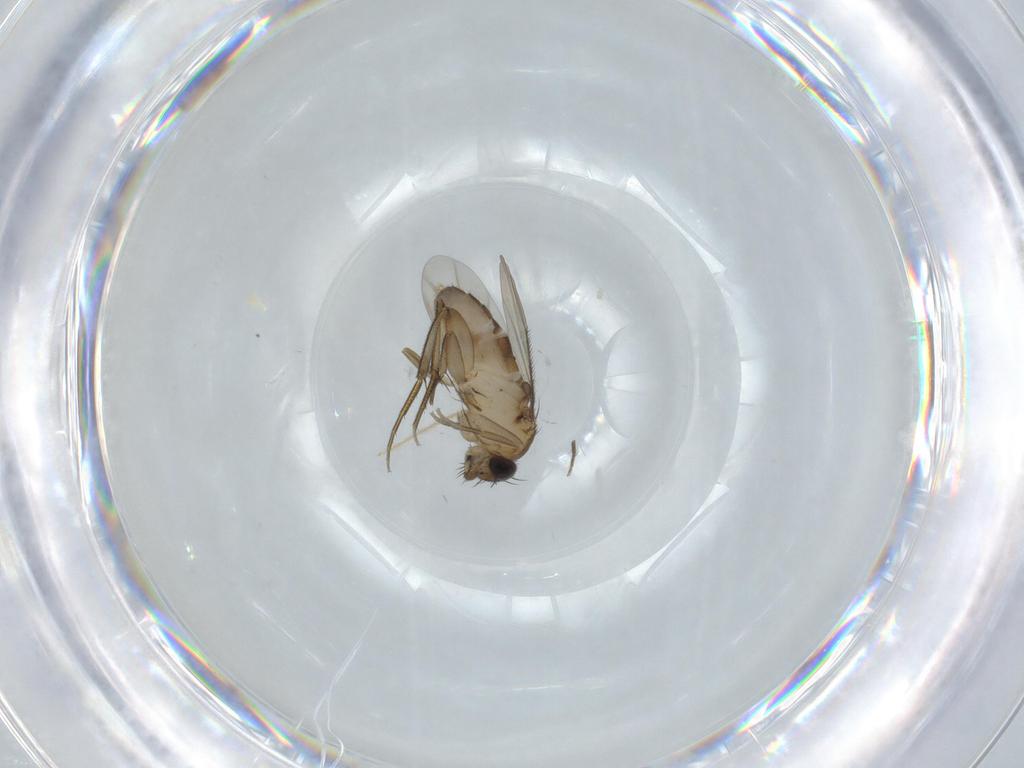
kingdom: Animalia
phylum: Arthropoda
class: Insecta
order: Diptera
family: Phoridae
